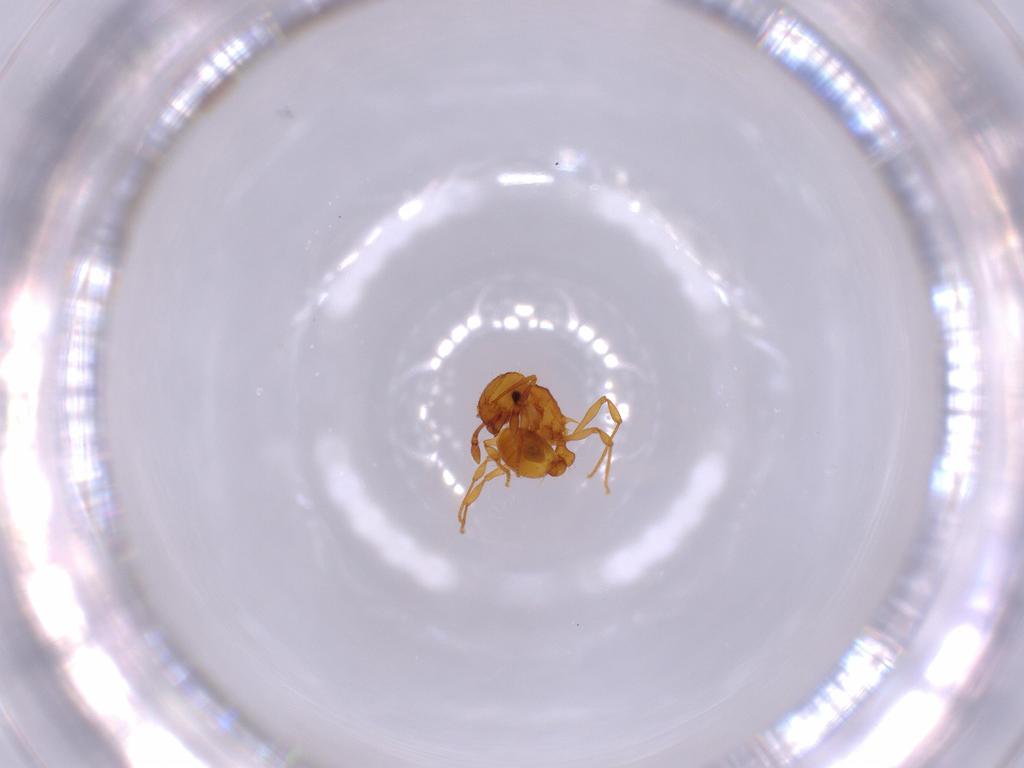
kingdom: Animalia
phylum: Arthropoda
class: Insecta
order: Hymenoptera
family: Formicidae
